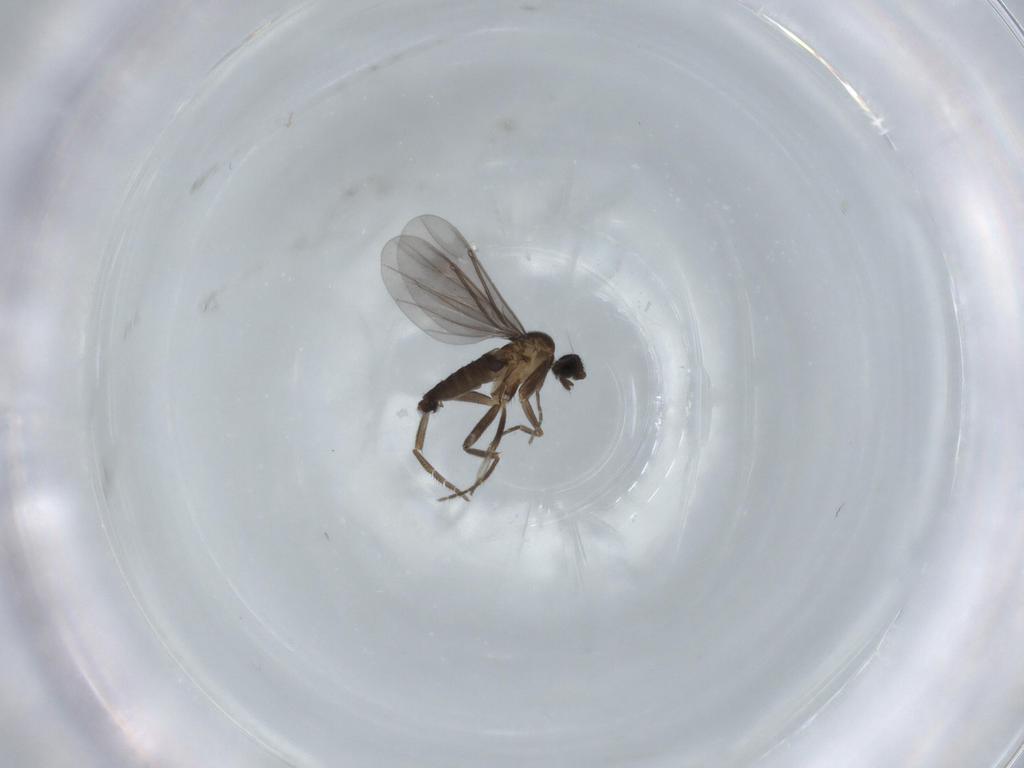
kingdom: Animalia
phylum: Arthropoda
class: Insecta
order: Diptera
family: Phoridae
